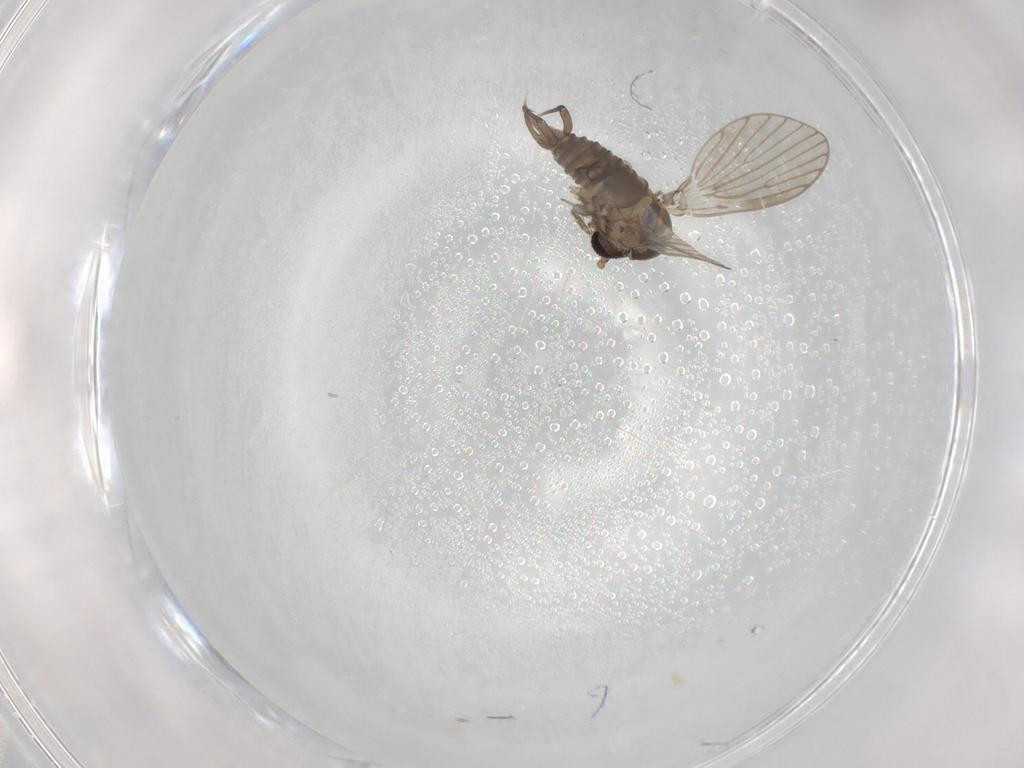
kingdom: Animalia
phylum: Arthropoda
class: Insecta
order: Diptera
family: Psychodidae
